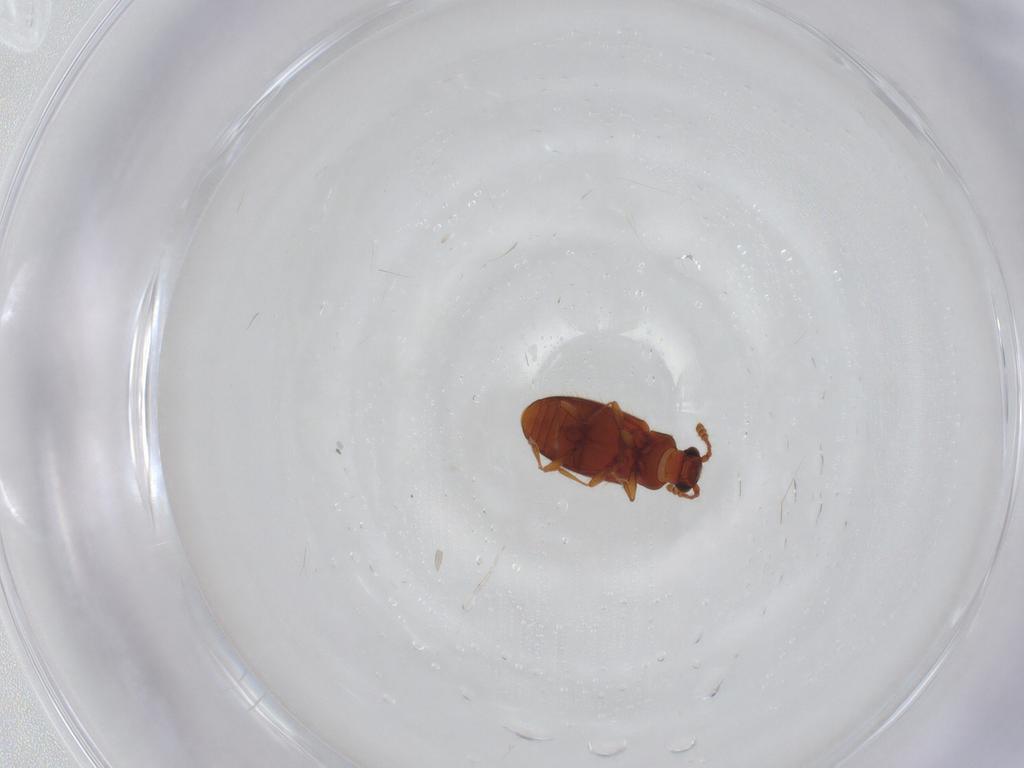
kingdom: Animalia
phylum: Arthropoda
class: Insecta
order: Coleoptera
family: Cryptophagidae
